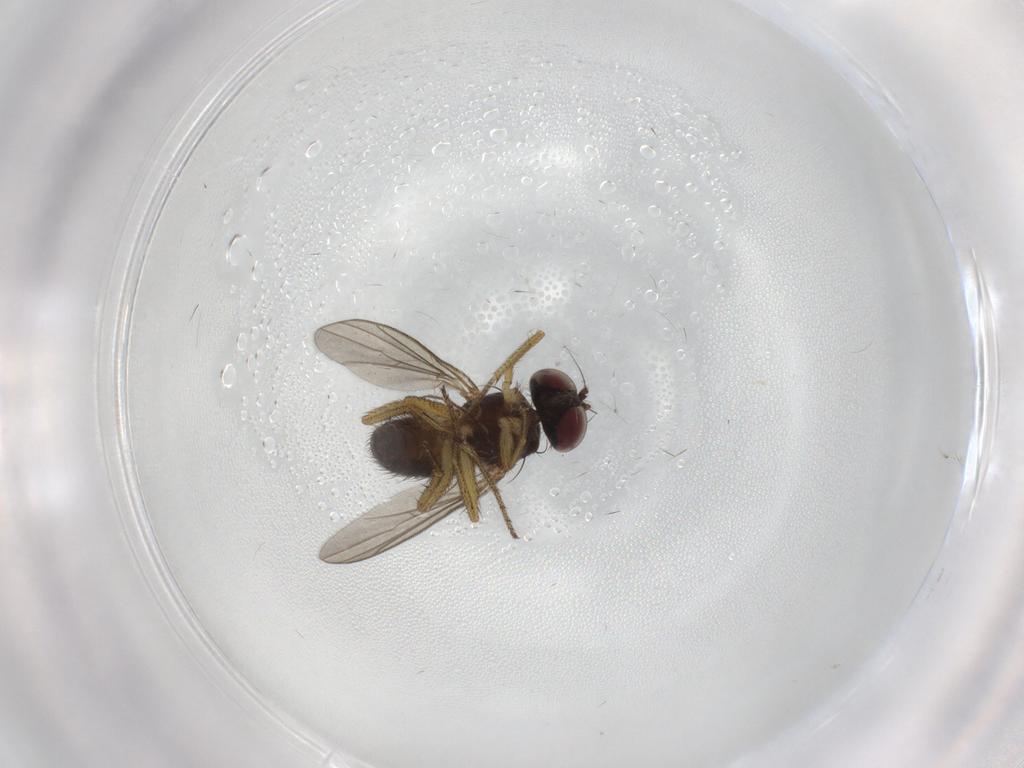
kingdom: Animalia
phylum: Arthropoda
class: Insecta
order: Diptera
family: Chironomidae
